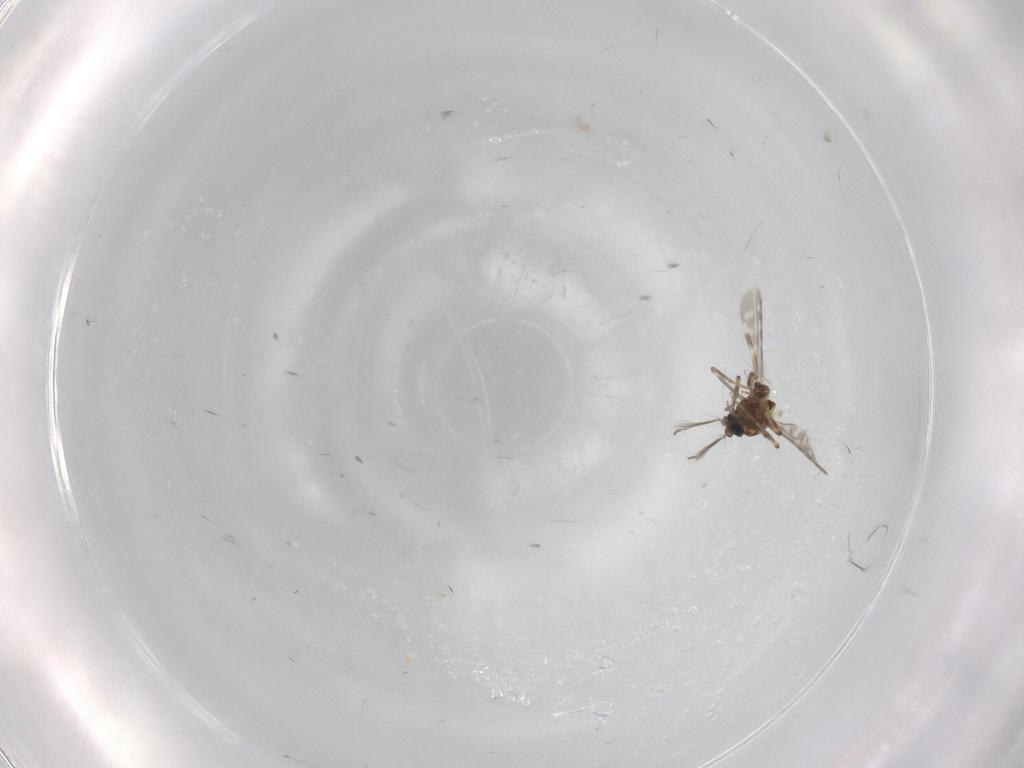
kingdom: Animalia
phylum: Arthropoda
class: Insecta
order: Diptera
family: Ceratopogonidae
